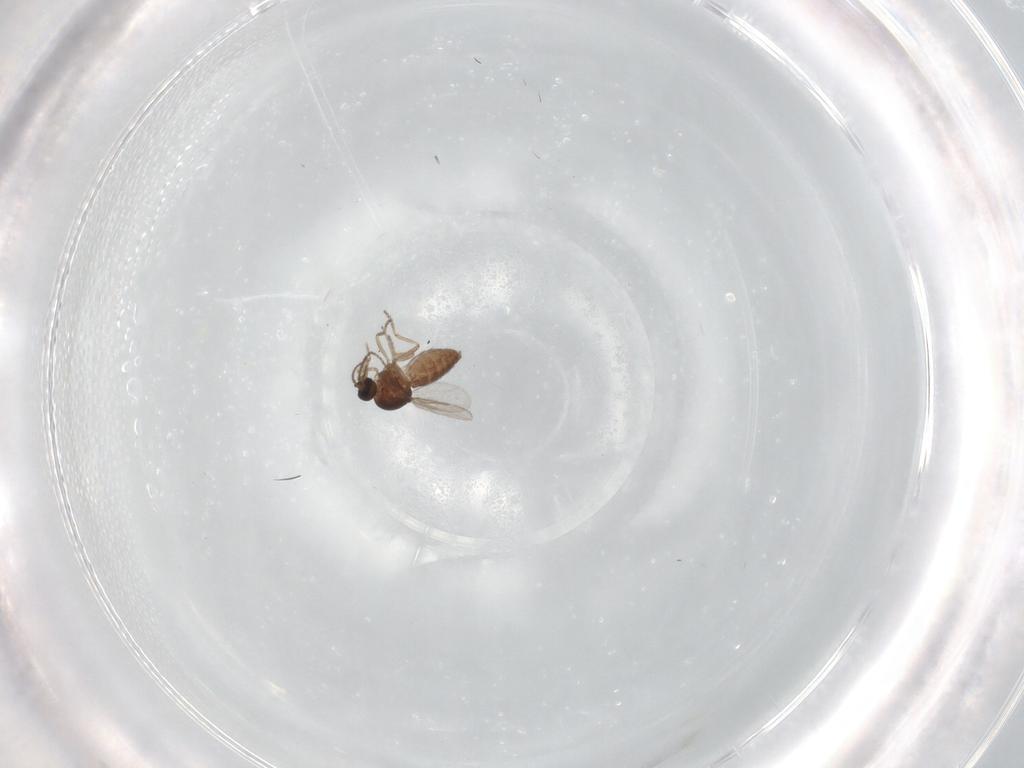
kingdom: Animalia
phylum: Arthropoda
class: Insecta
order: Diptera
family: Ceratopogonidae
